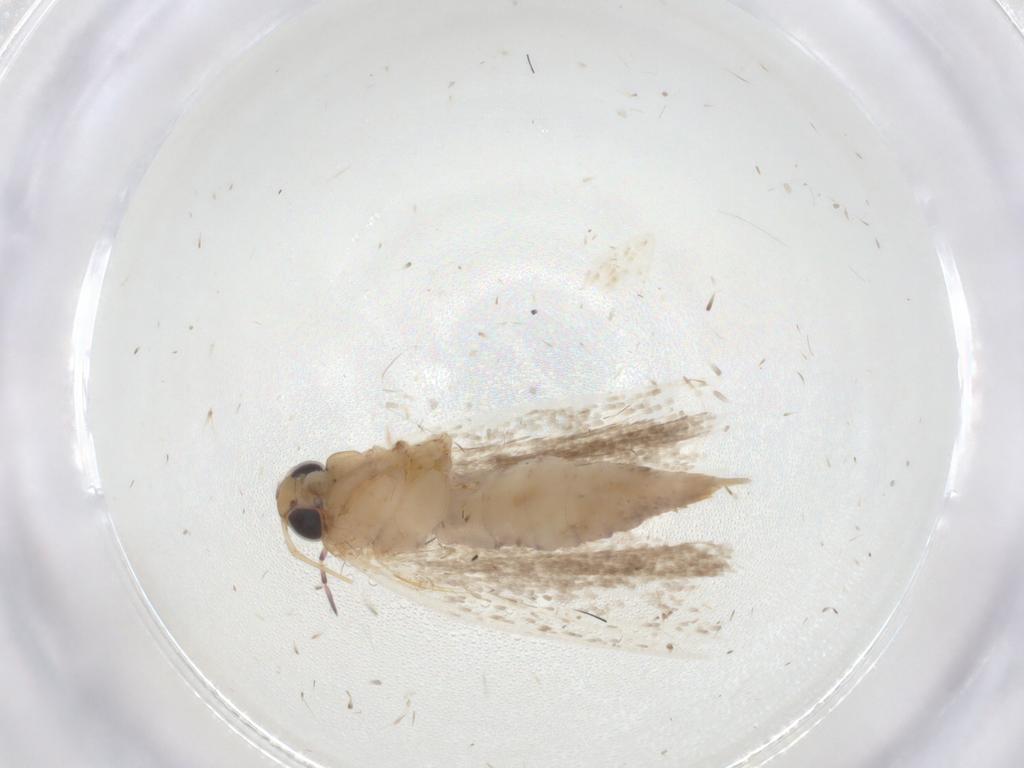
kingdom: Animalia
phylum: Arthropoda
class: Insecta
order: Lepidoptera
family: Gelechiidae
